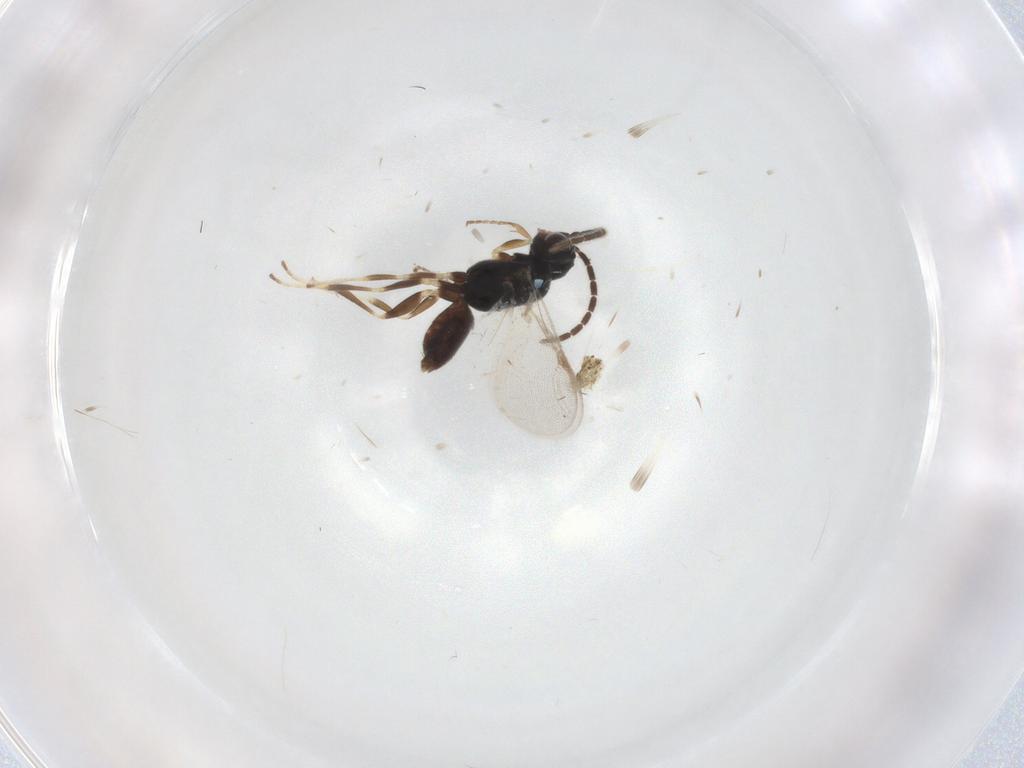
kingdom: Animalia
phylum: Arthropoda
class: Insecta
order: Hymenoptera
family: Dryinidae
